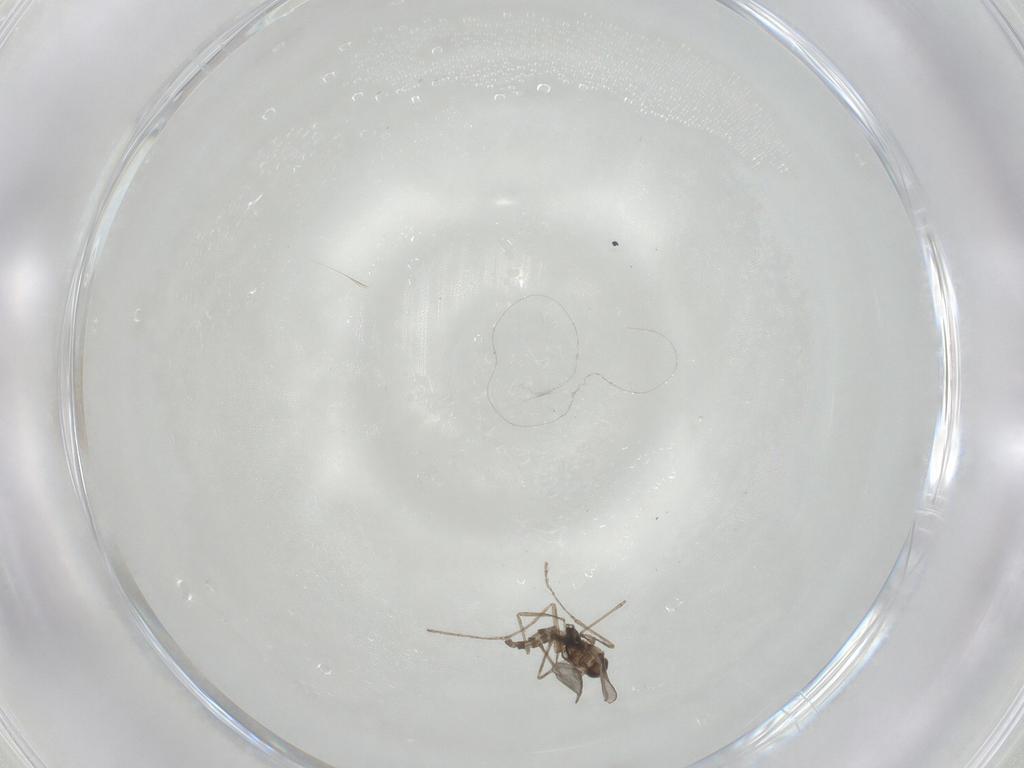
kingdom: Animalia
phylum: Arthropoda
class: Insecta
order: Diptera
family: Cecidomyiidae
